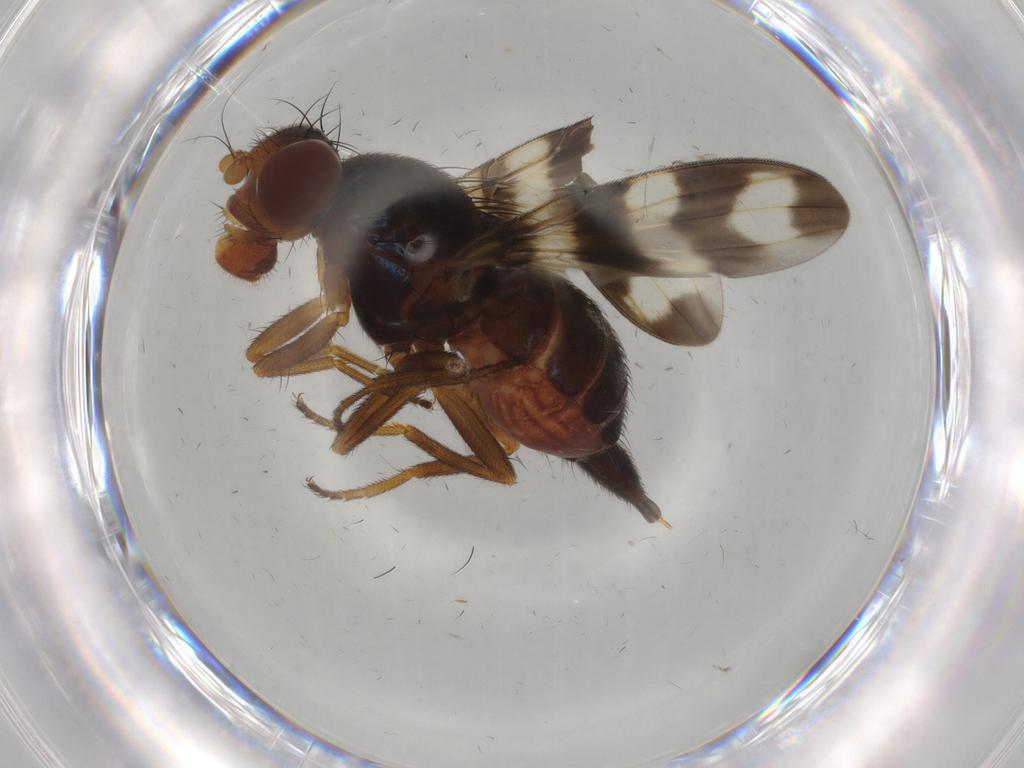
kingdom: Animalia
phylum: Arthropoda
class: Insecta
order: Diptera
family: Ulidiidae
